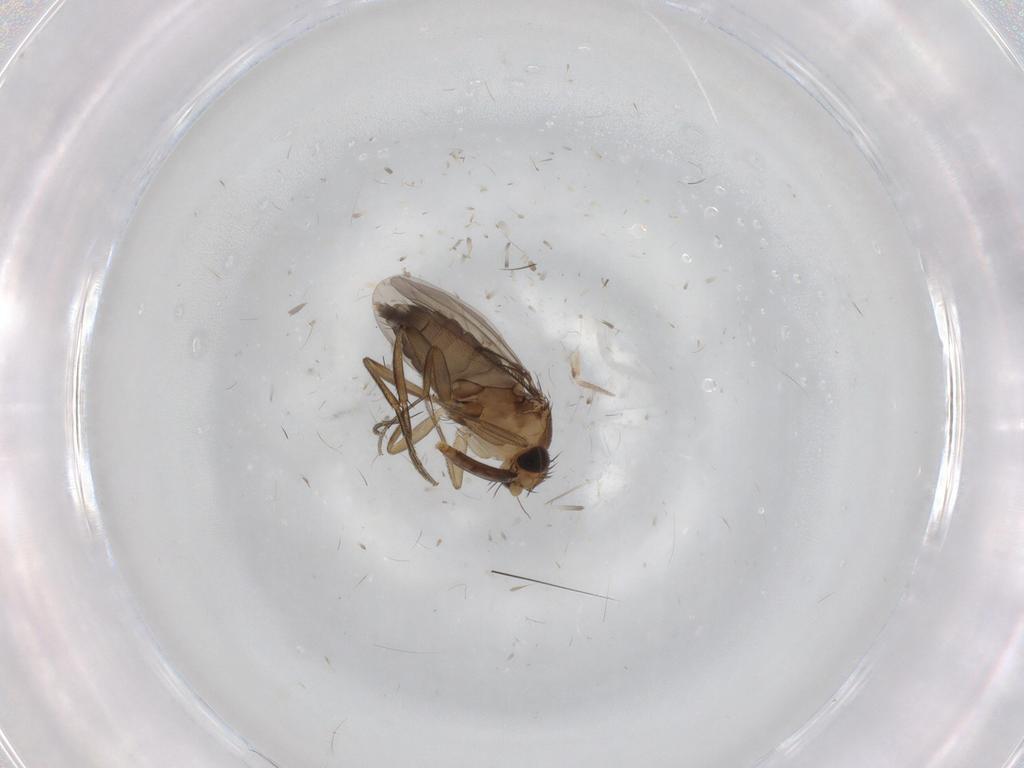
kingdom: Animalia
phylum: Arthropoda
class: Insecta
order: Diptera
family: Phoridae
